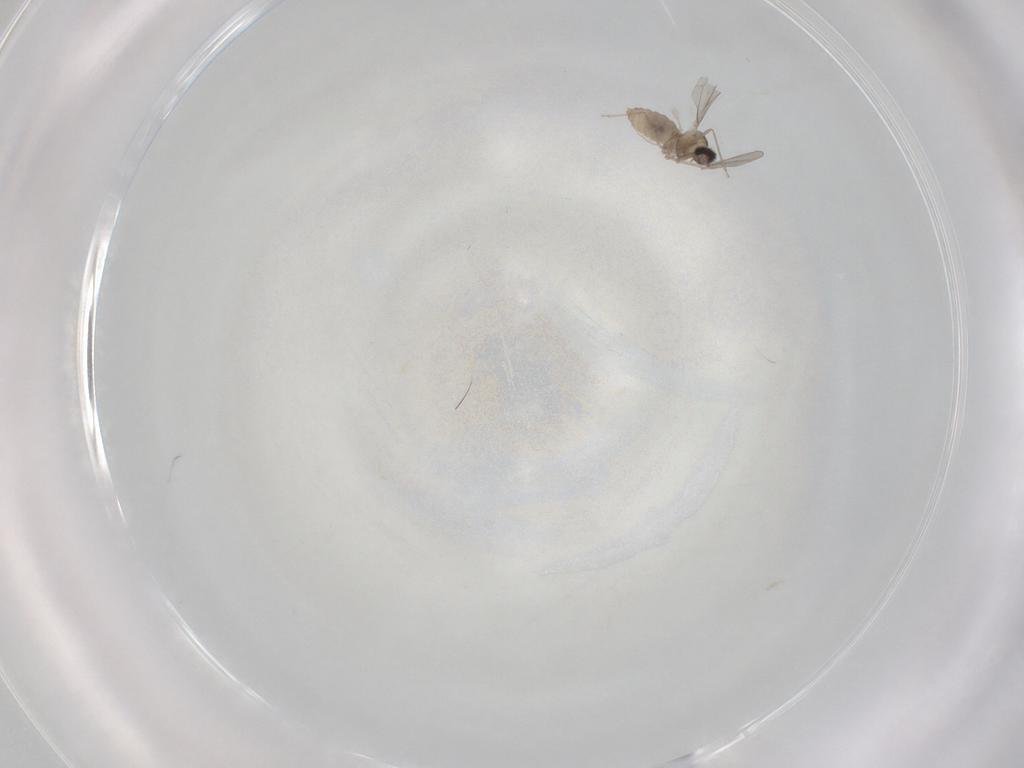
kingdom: Animalia
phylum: Arthropoda
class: Insecta
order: Diptera
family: Cecidomyiidae
